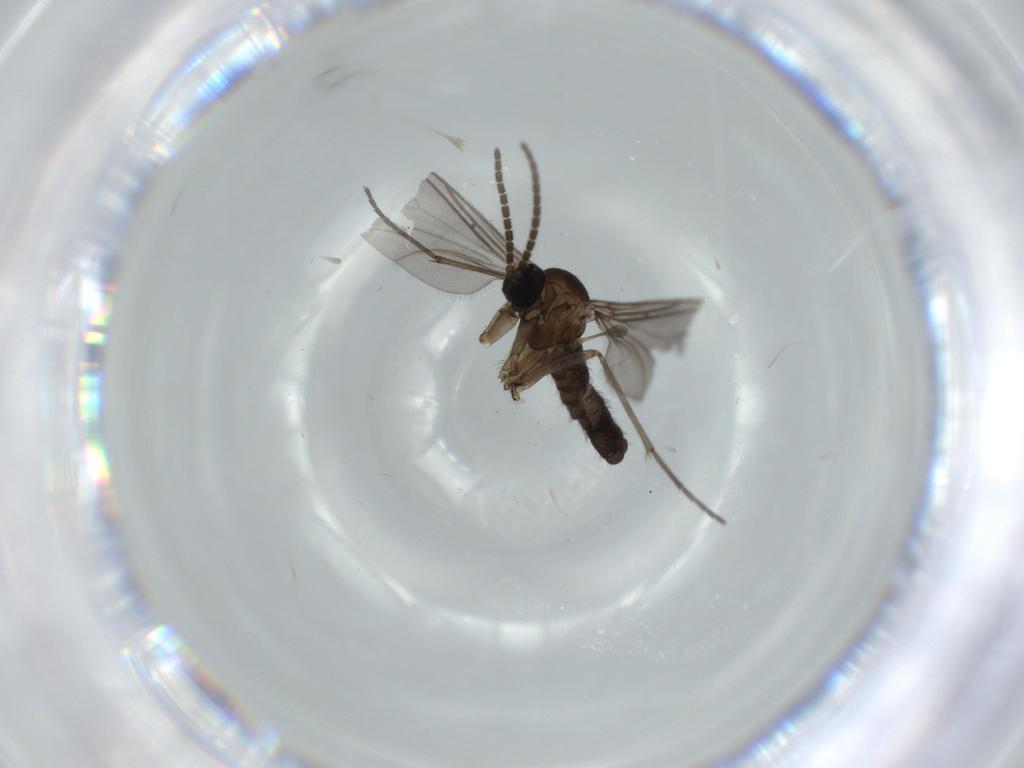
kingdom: Animalia
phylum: Arthropoda
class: Insecta
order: Diptera
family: Sciaridae
